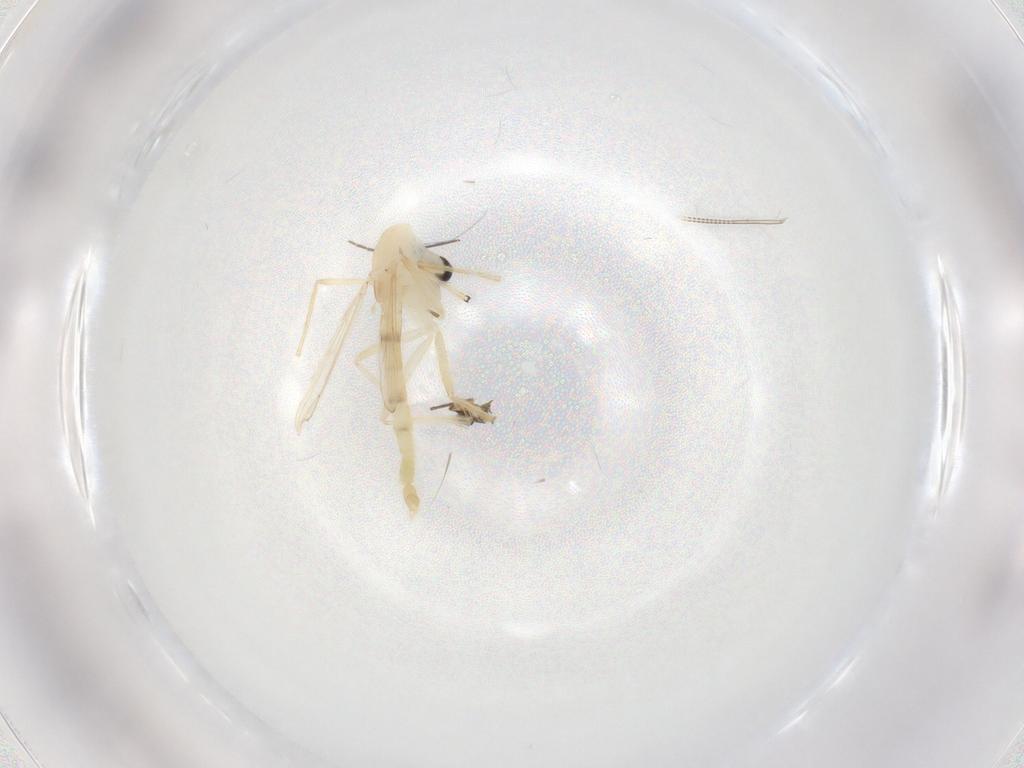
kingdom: Animalia
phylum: Arthropoda
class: Insecta
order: Diptera
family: Chironomidae
